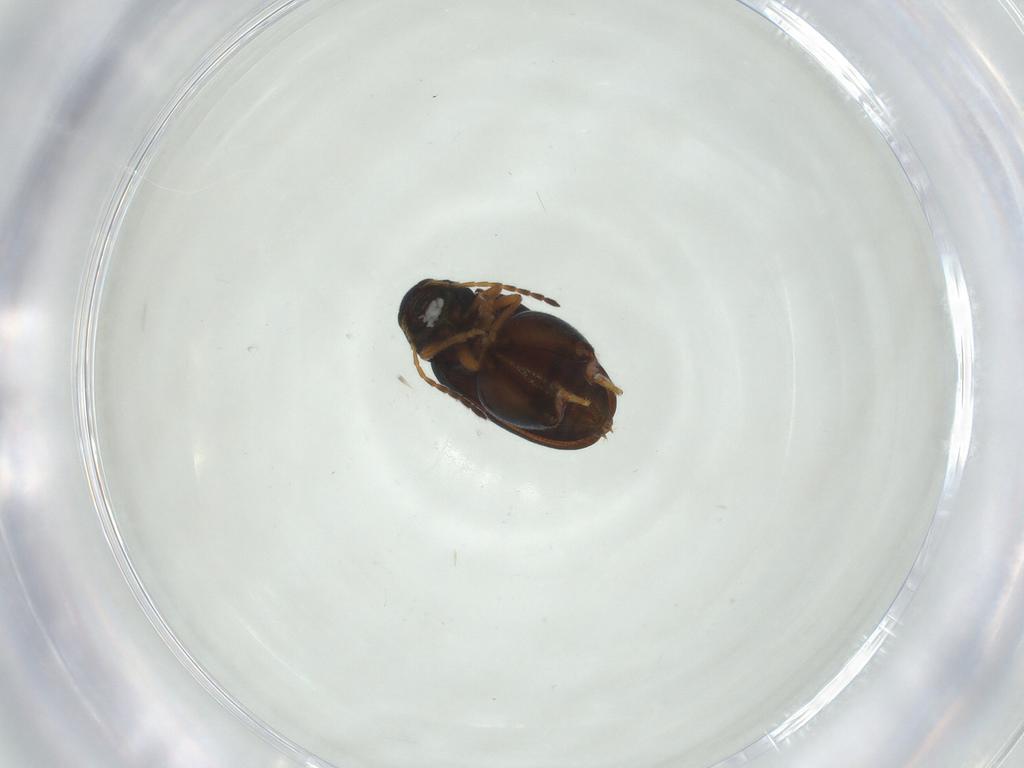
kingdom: Animalia
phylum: Arthropoda
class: Insecta
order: Coleoptera
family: Chrysomelidae
